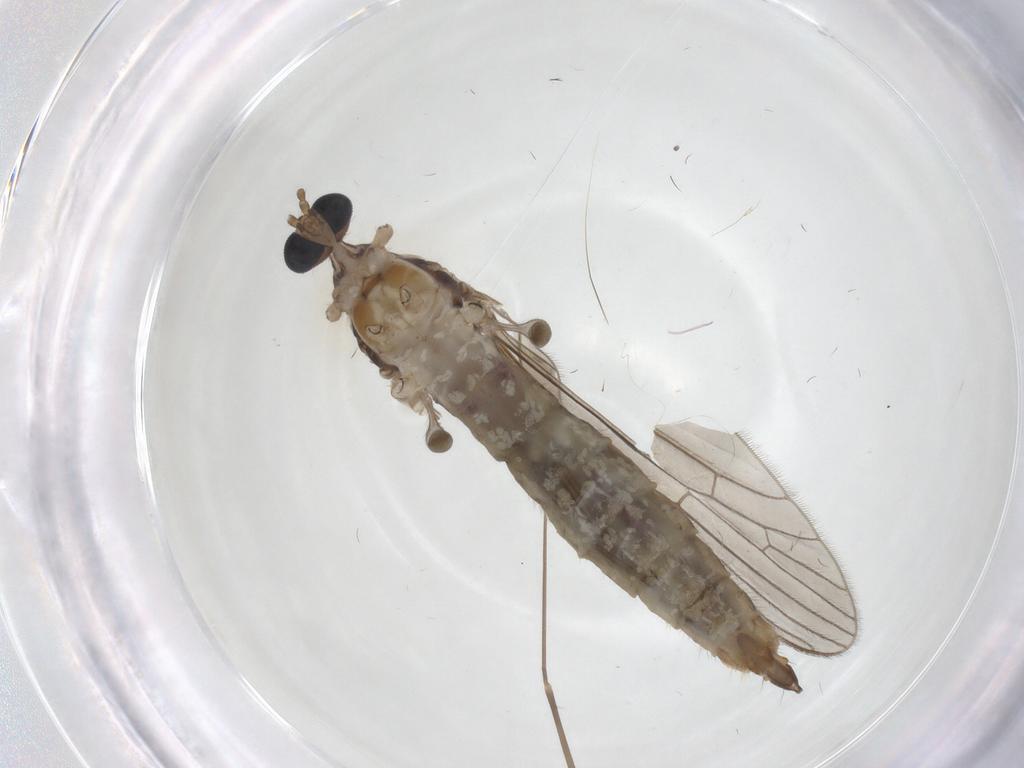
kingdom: Animalia
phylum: Arthropoda
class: Insecta
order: Diptera
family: Limoniidae
